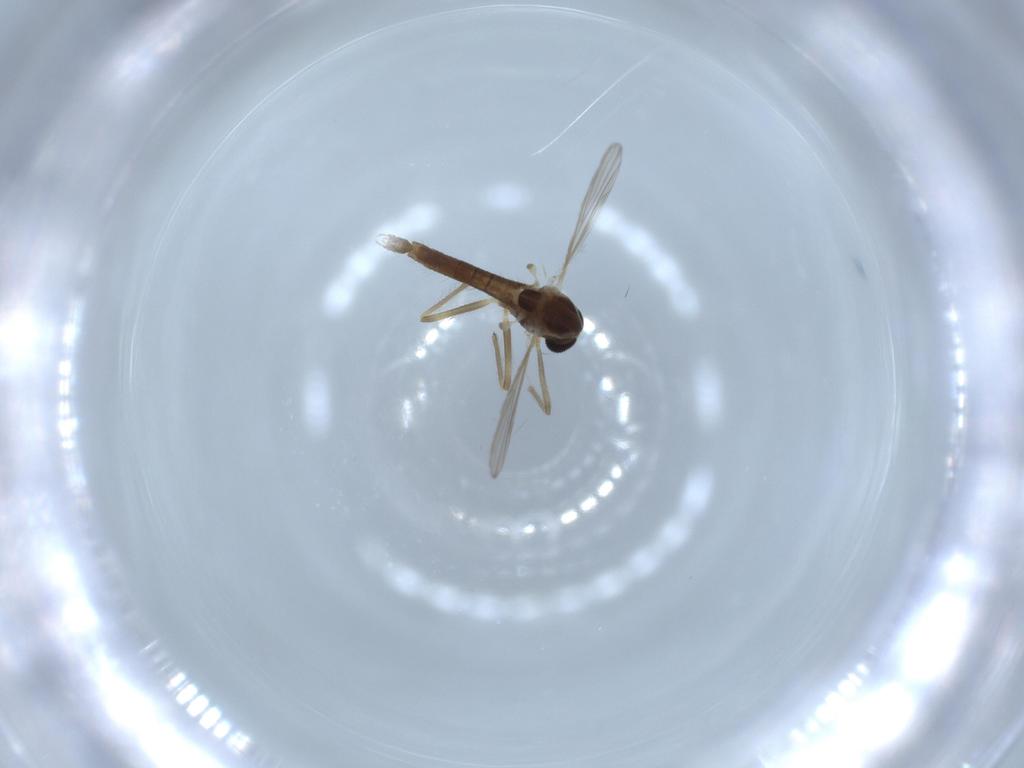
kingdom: Animalia
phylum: Arthropoda
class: Insecta
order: Diptera
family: Chironomidae
